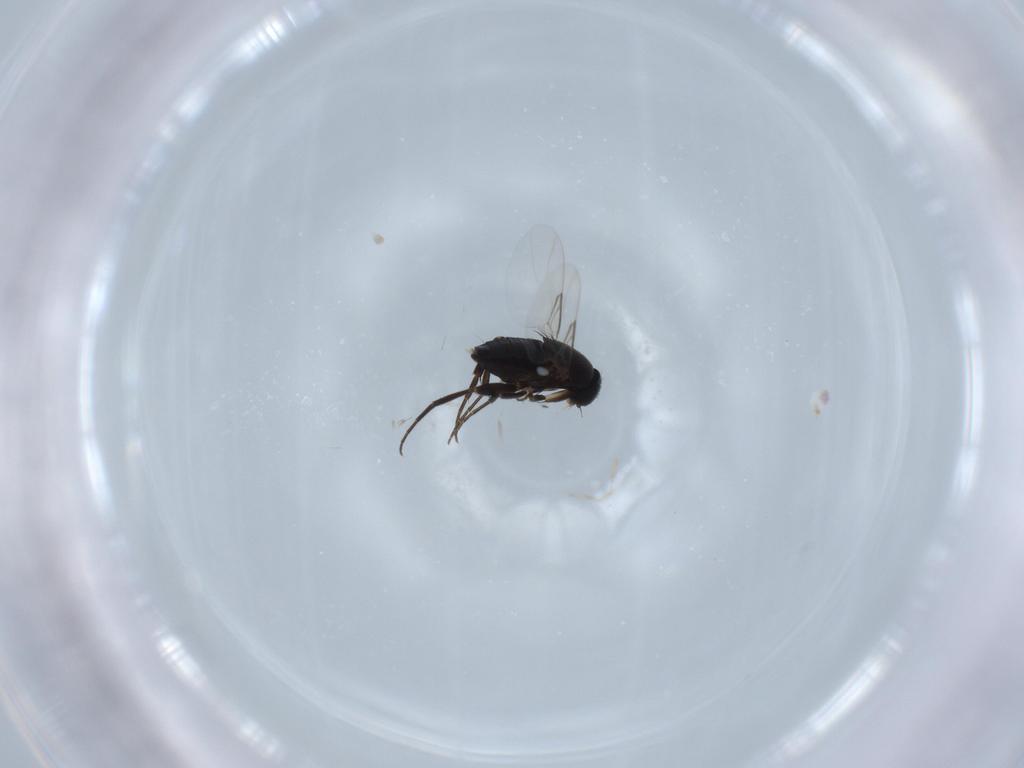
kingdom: Animalia
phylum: Arthropoda
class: Insecta
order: Diptera
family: Phoridae
